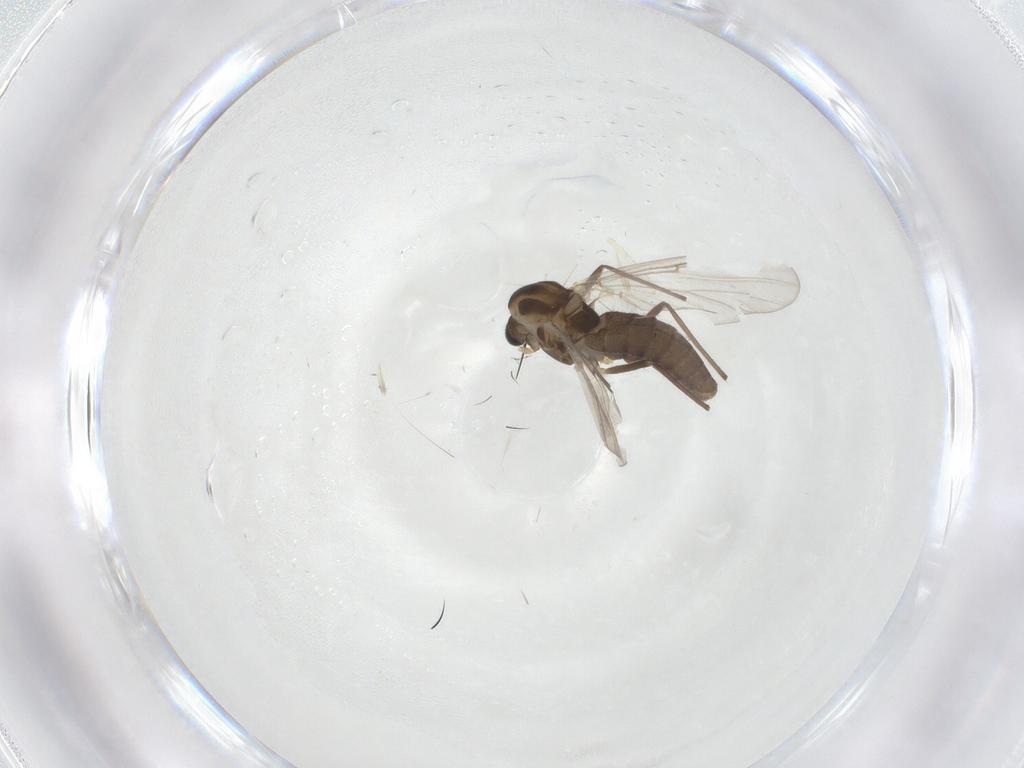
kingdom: Animalia
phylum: Arthropoda
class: Insecta
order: Diptera
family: Chironomidae
